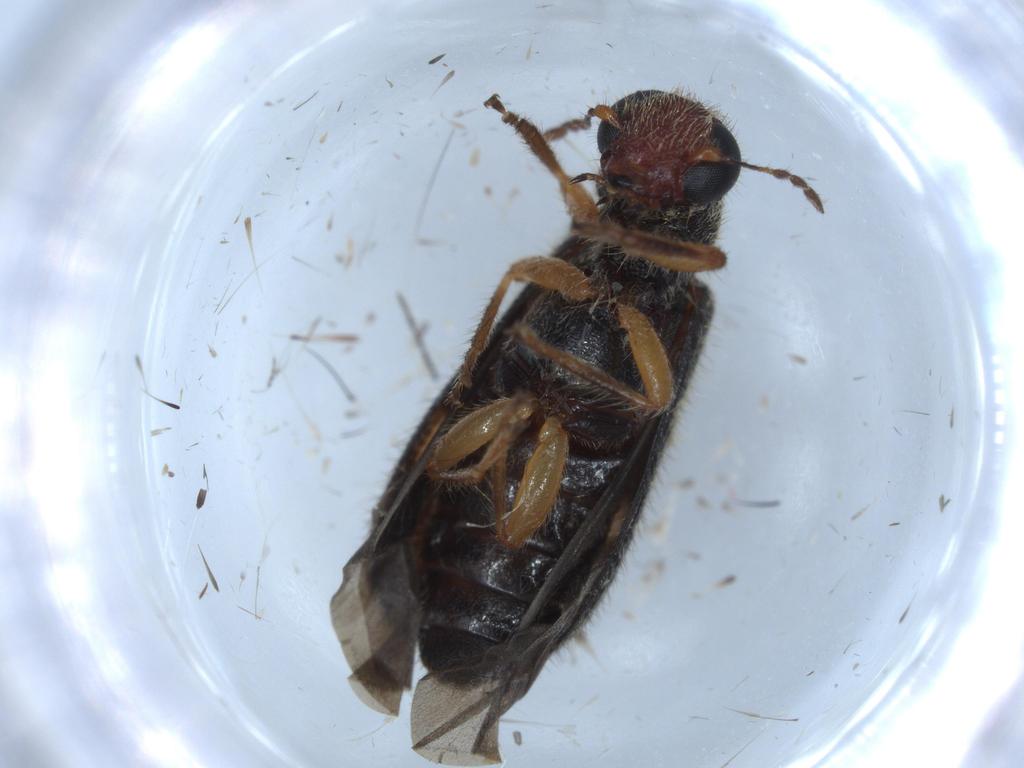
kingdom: Animalia
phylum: Arthropoda
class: Insecta
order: Coleoptera
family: Cleridae
